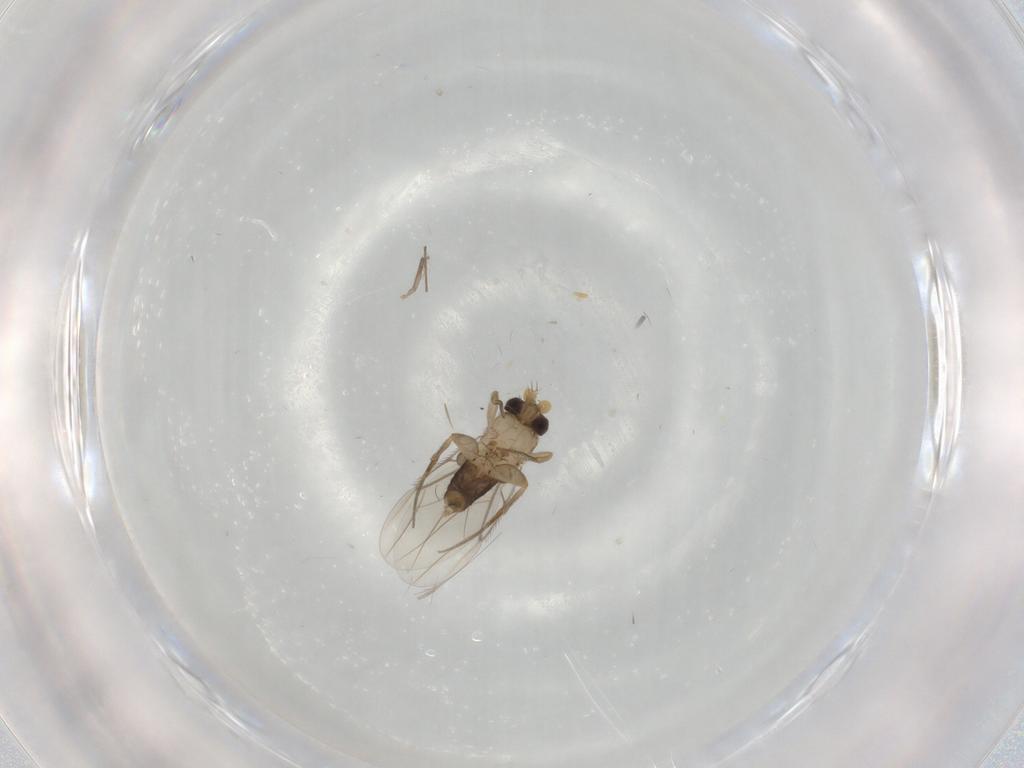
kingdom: Animalia
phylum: Arthropoda
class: Insecta
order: Diptera
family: Phoridae
